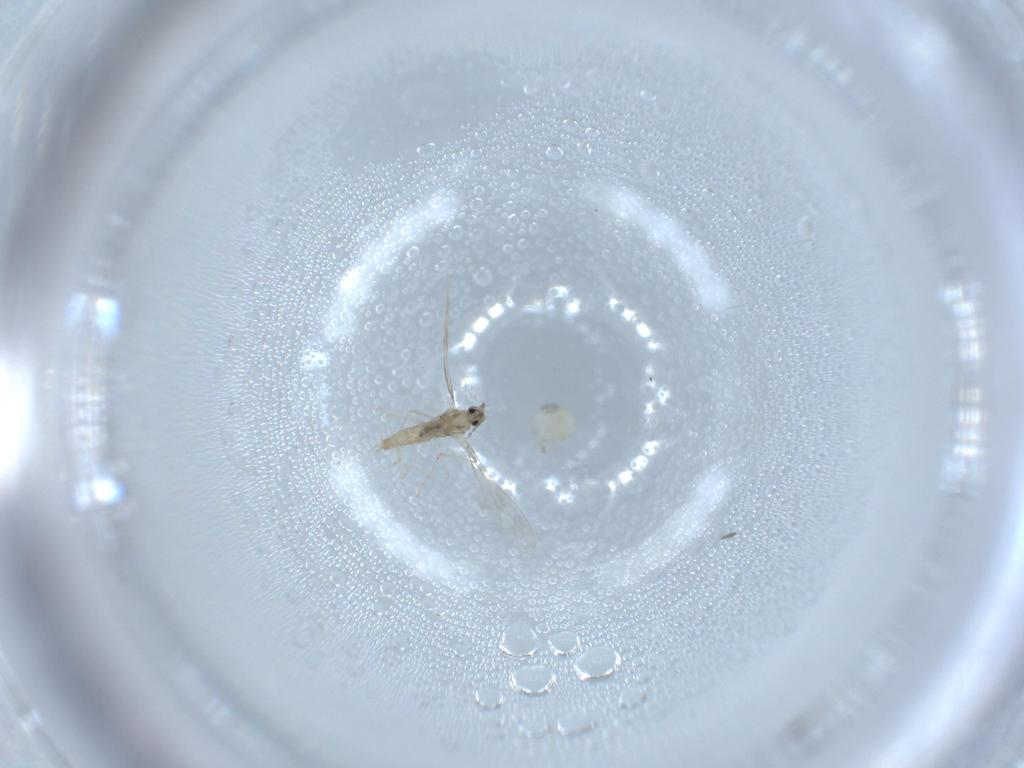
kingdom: Animalia
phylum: Arthropoda
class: Insecta
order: Diptera
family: Cecidomyiidae
